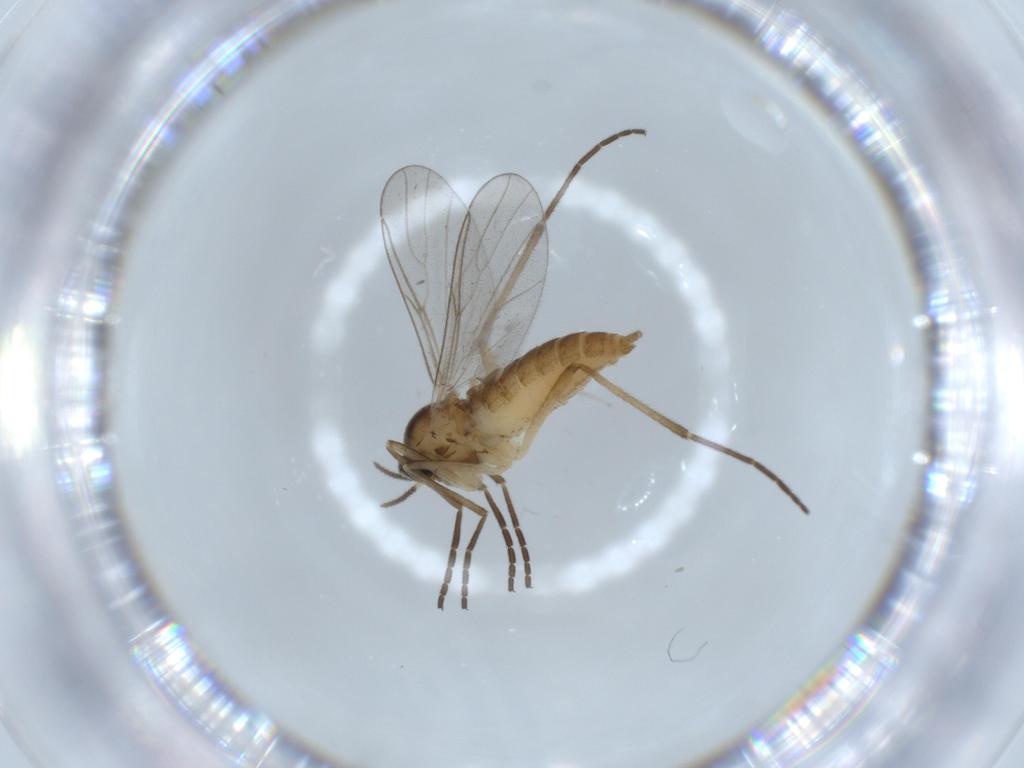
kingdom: Animalia
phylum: Arthropoda
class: Insecta
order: Diptera
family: Cecidomyiidae
